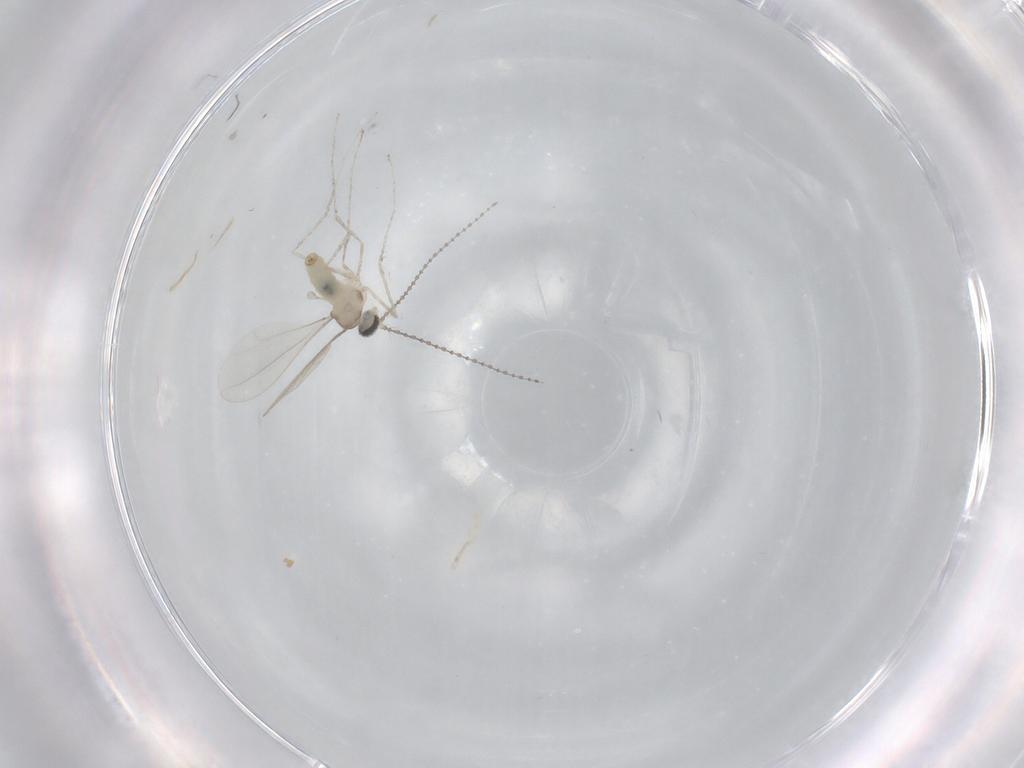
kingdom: Animalia
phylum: Arthropoda
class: Insecta
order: Diptera
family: Cecidomyiidae
